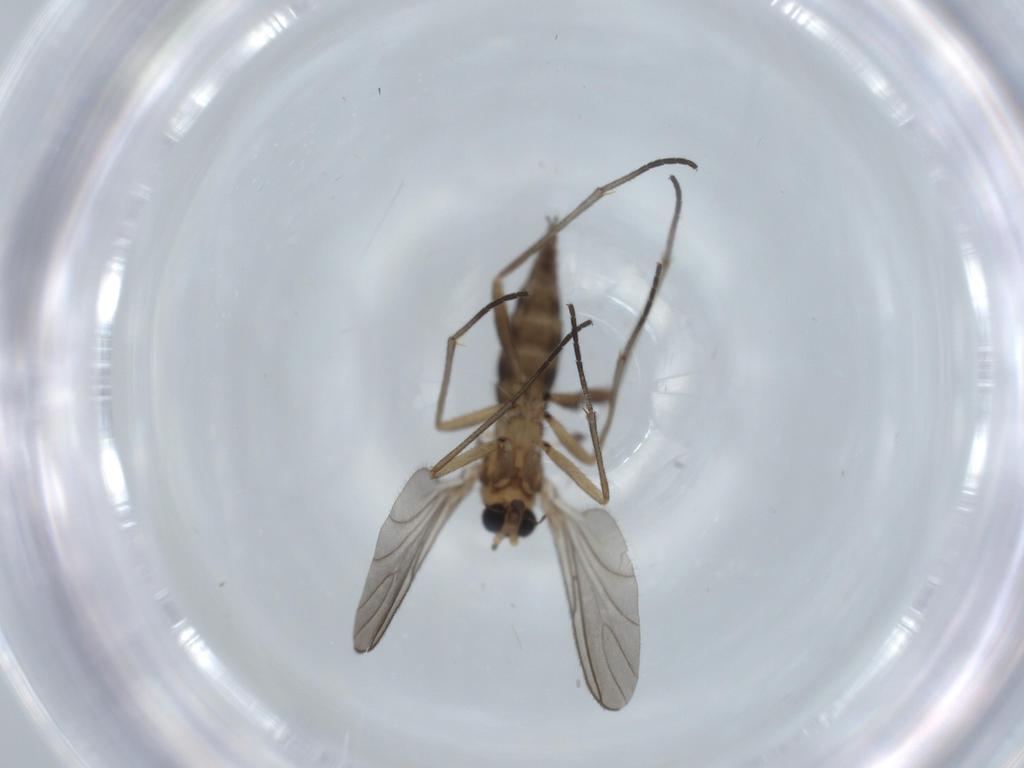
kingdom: Animalia
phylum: Arthropoda
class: Insecta
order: Diptera
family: Sciaridae
